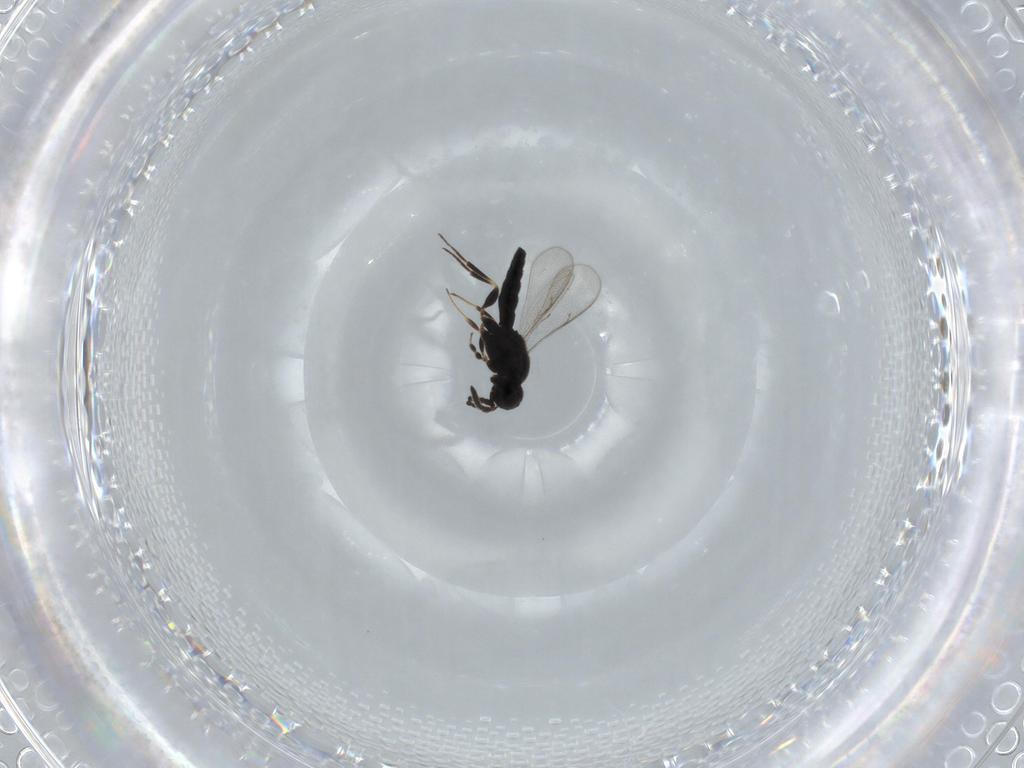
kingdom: Animalia
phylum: Arthropoda
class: Insecta
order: Hymenoptera
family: Scelionidae
